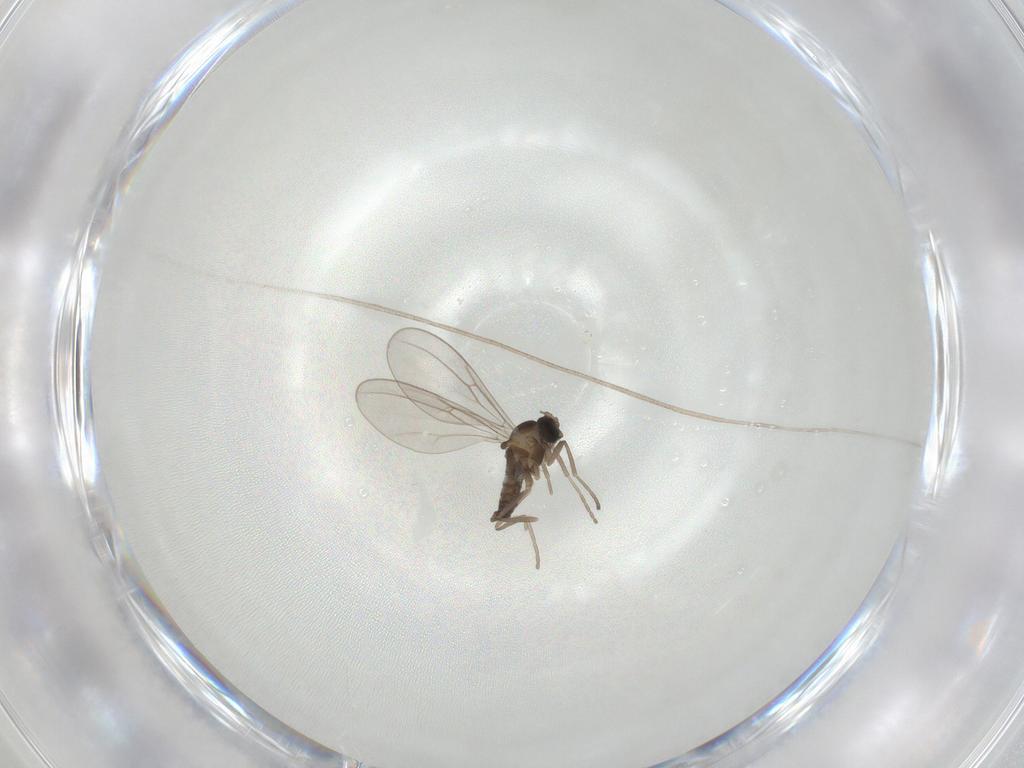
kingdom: Animalia
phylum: Arthropoda
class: Insecta
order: Diptera
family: Cecidomyiidae
